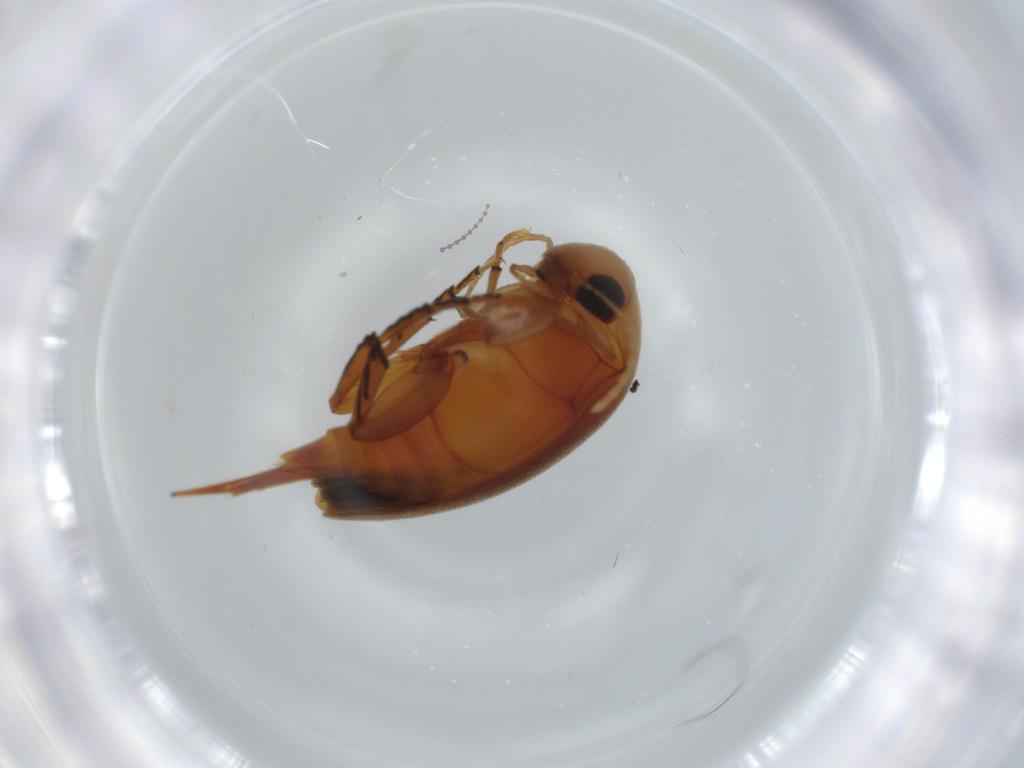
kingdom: Animalia
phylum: Arthropoda
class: Insecta
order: Coleoptera
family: Mordellidae
